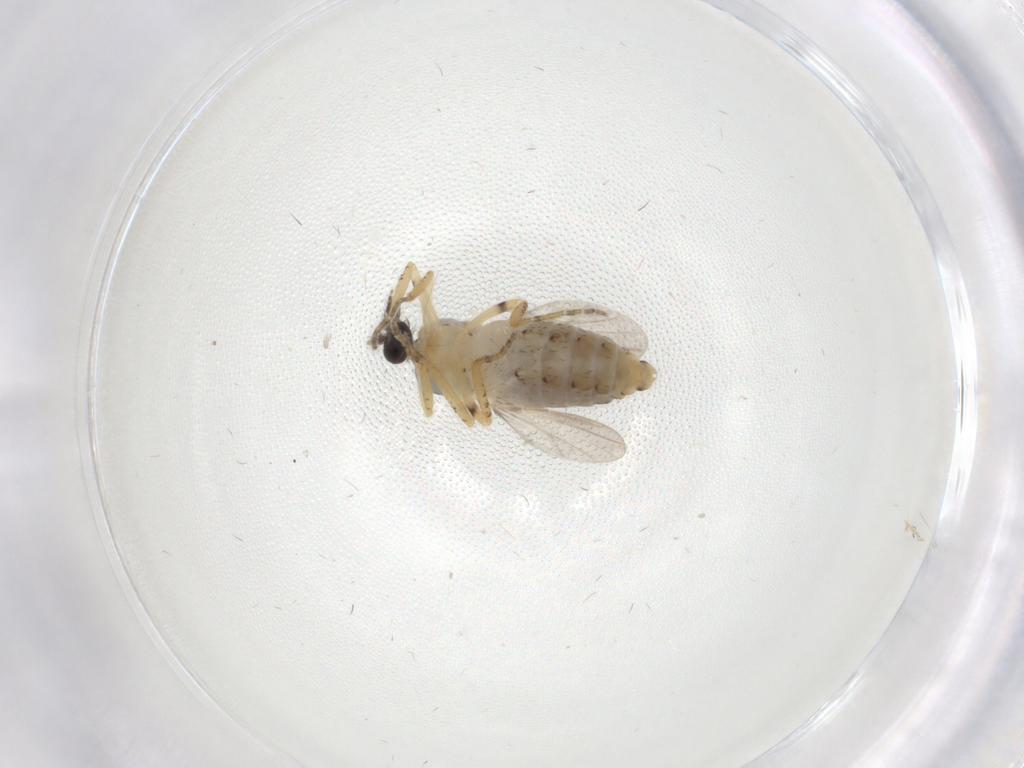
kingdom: Animalia
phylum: Arthropoda
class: Insecta
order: Diptera
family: Ceratopogonidae
